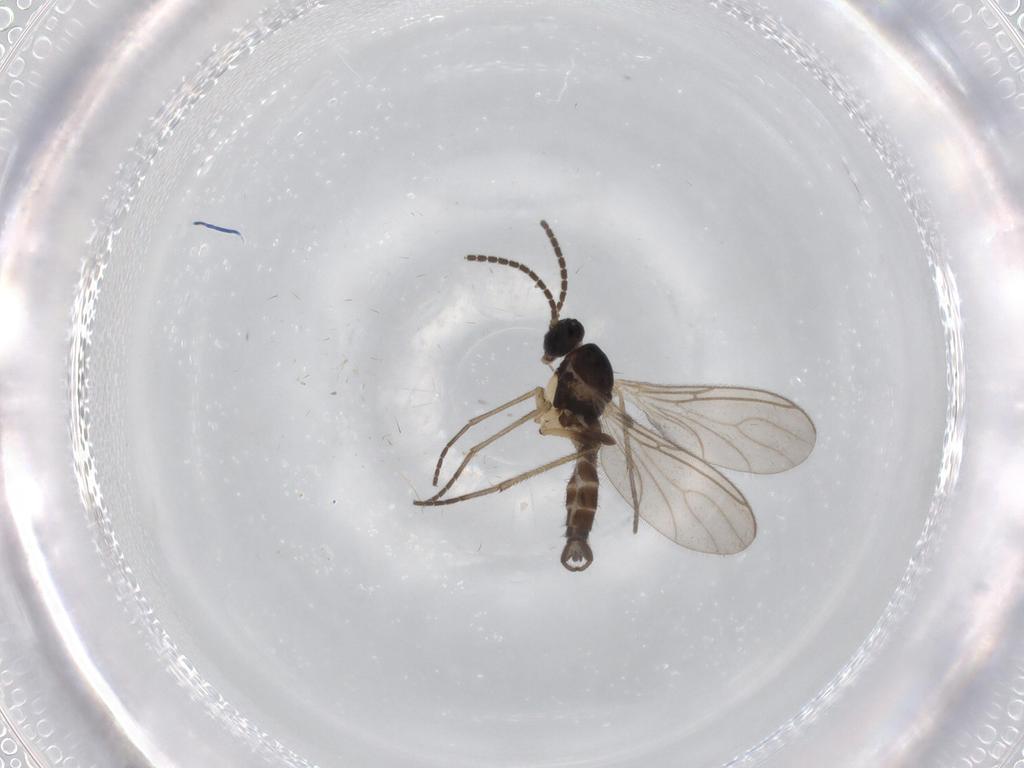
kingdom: Animalia
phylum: Arthropoda
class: Insecta
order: Diptera
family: Sciaridae
